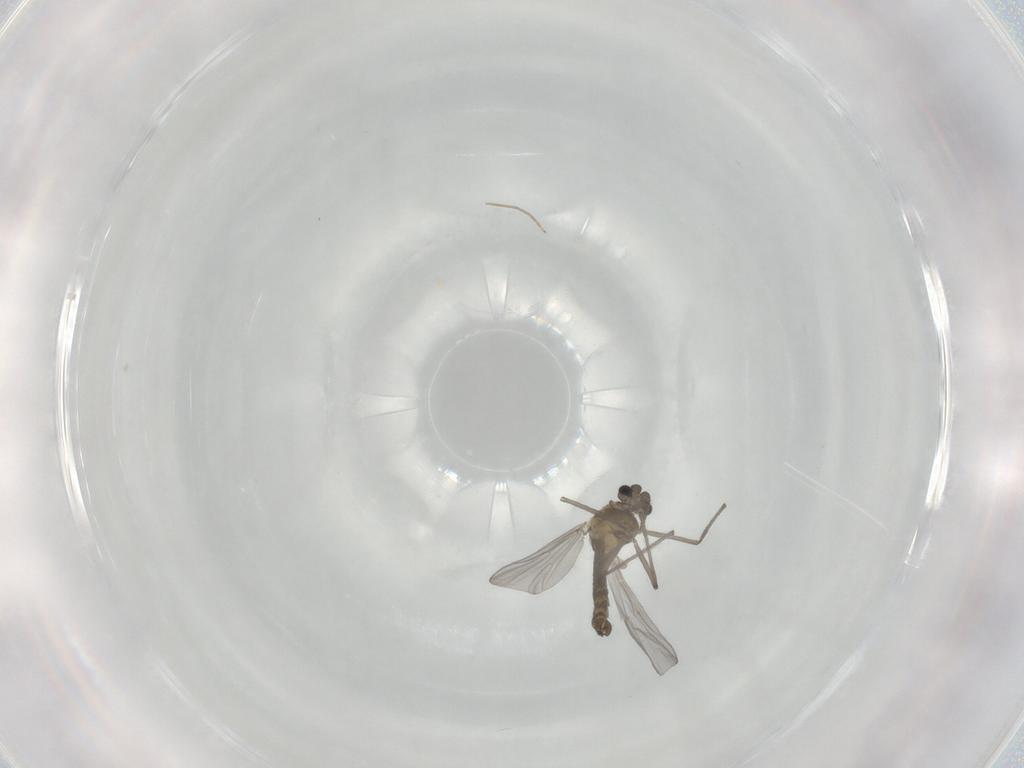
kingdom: Animalia
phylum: Arthropoda
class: Insecta
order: Diptera
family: Chironomidae
